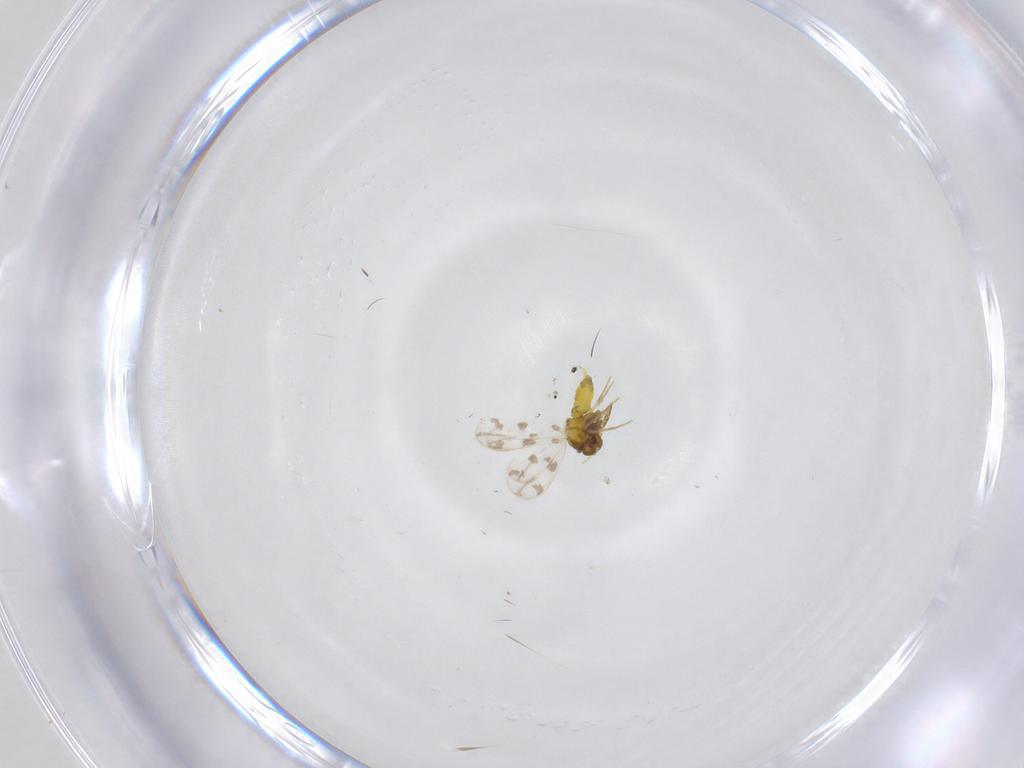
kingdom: Animalia
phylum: Arthropoda
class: Insecta
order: Hemiptera
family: Aleyrodidae
